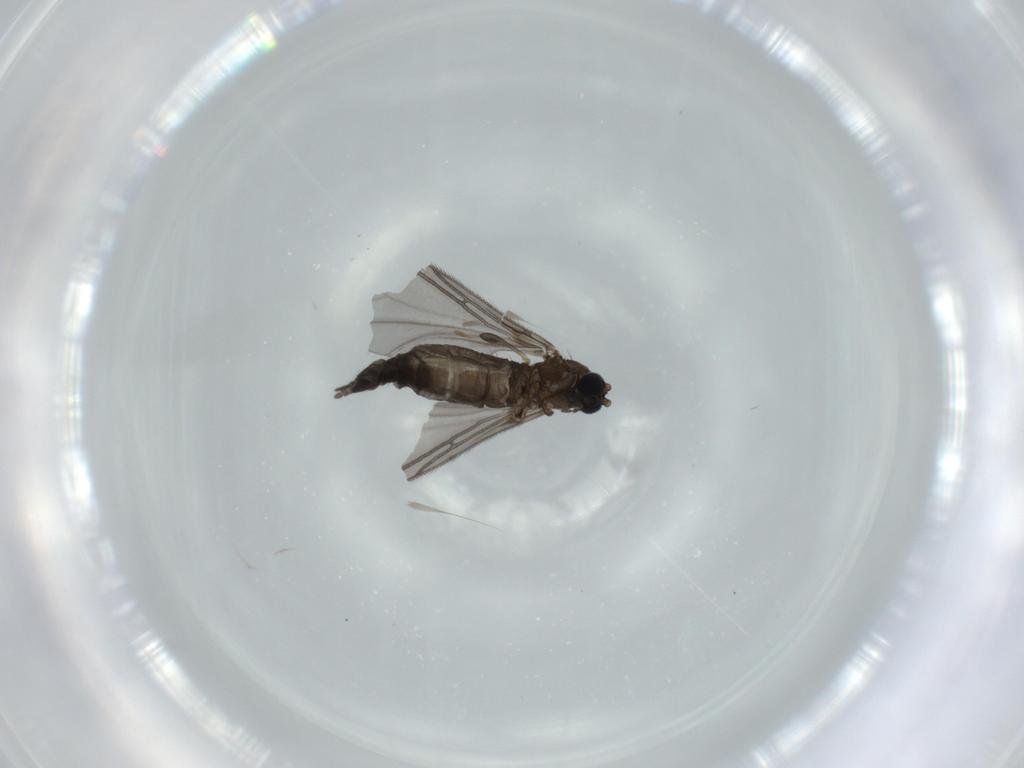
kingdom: Animalia
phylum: Arthropoda
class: Insecta
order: Diptera
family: Sciaridae
